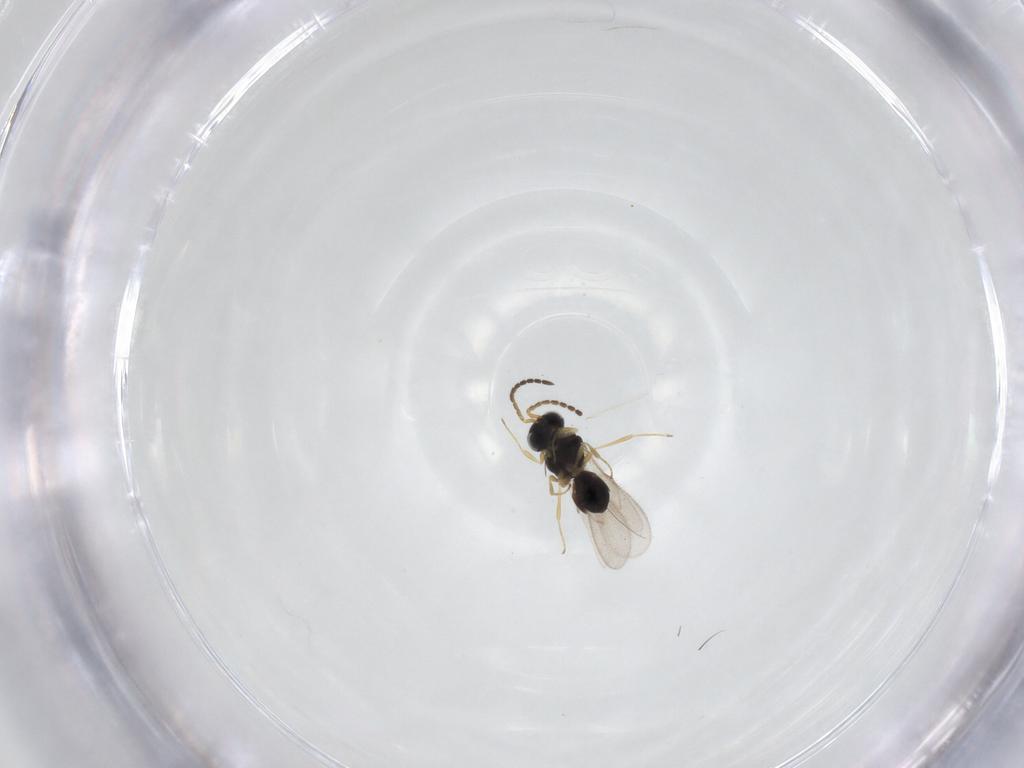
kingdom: Animalia
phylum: Arthropoda
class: Insecta
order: Hymenoptera
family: Scelionidae
